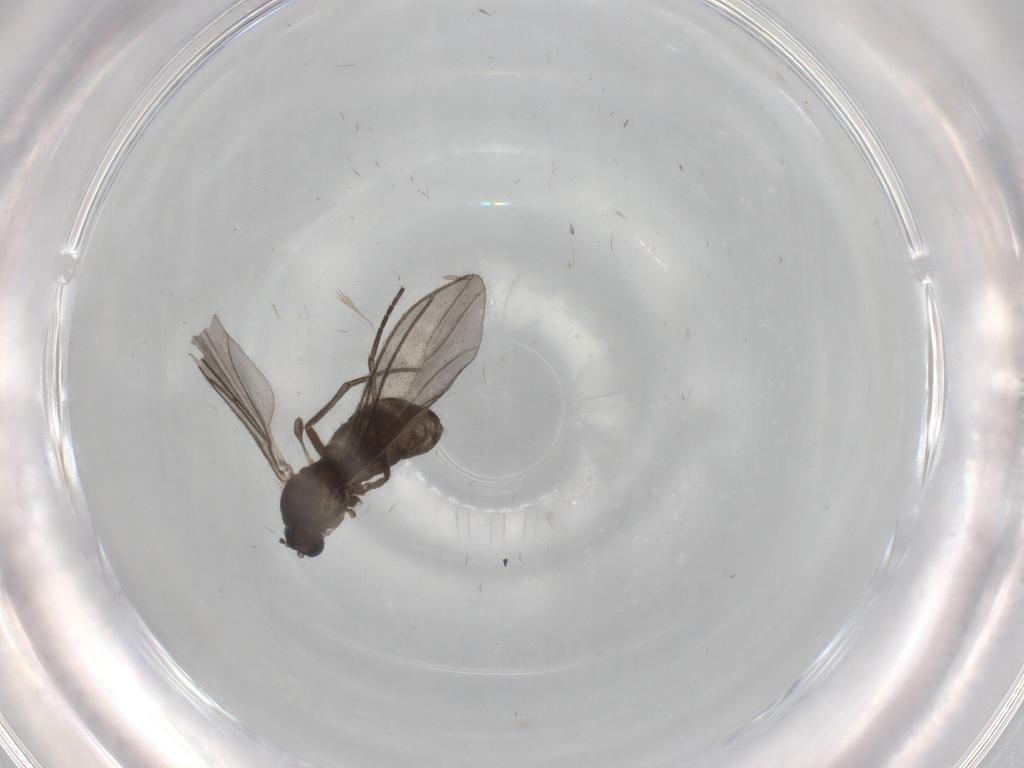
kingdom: Animalia
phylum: Arthropoda
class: Insecta
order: Diptera
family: Sciaridae
